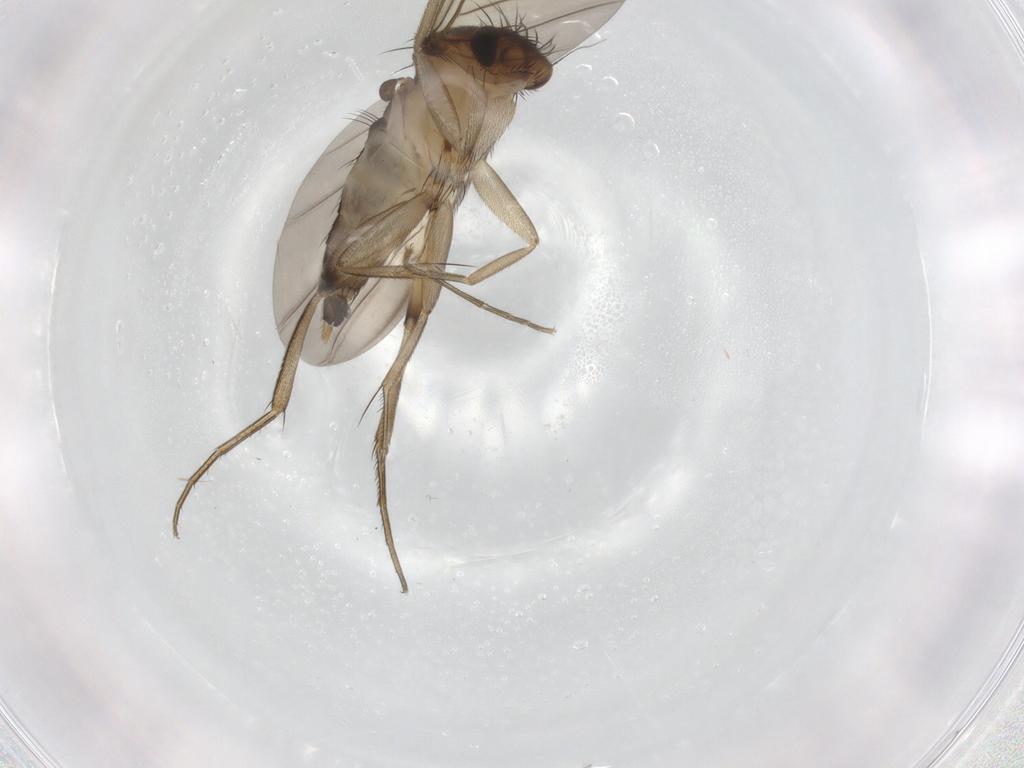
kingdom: Animalia
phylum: Arthropoda
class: Insecta
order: Diptera
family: Phoridae
